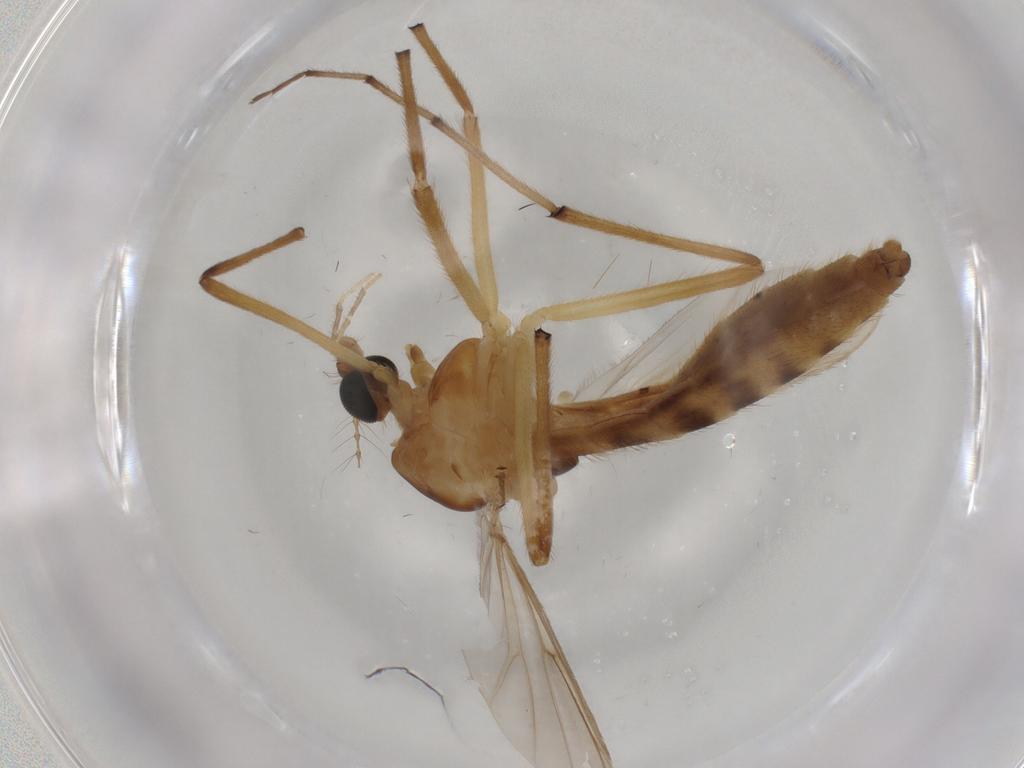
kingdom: Animalia
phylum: Arthropoda
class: Insecta
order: Diptera
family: Chironomidae
